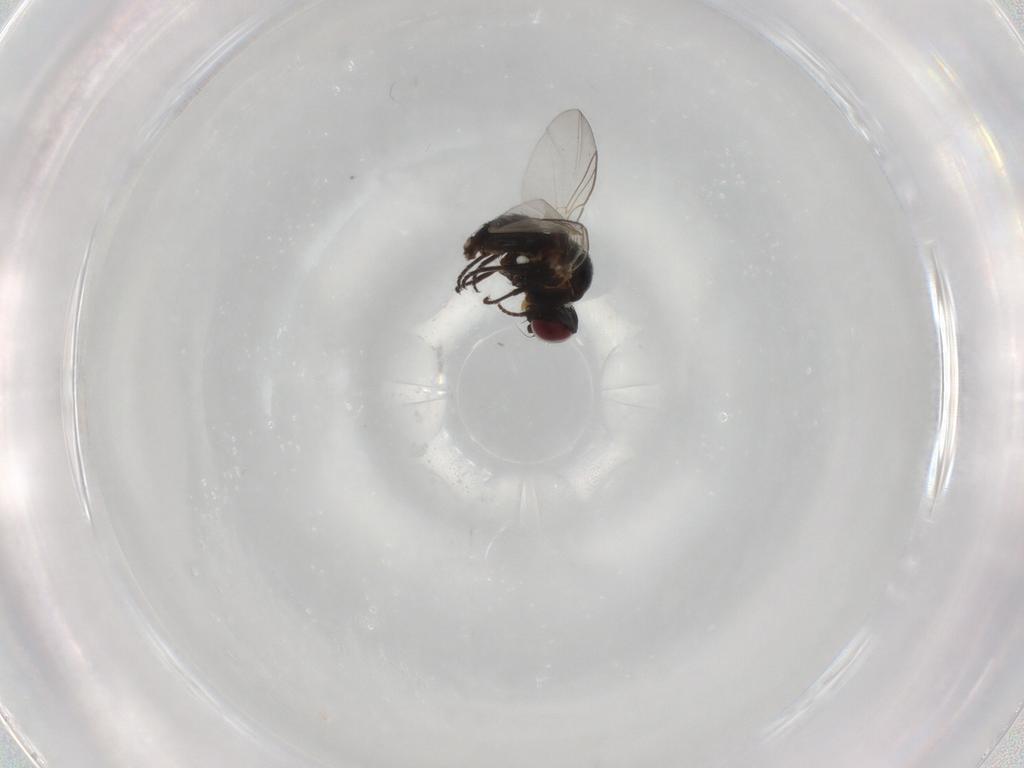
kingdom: Animalia
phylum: Arthropoda
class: Insecta
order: Diptera
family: Agromyzidae
